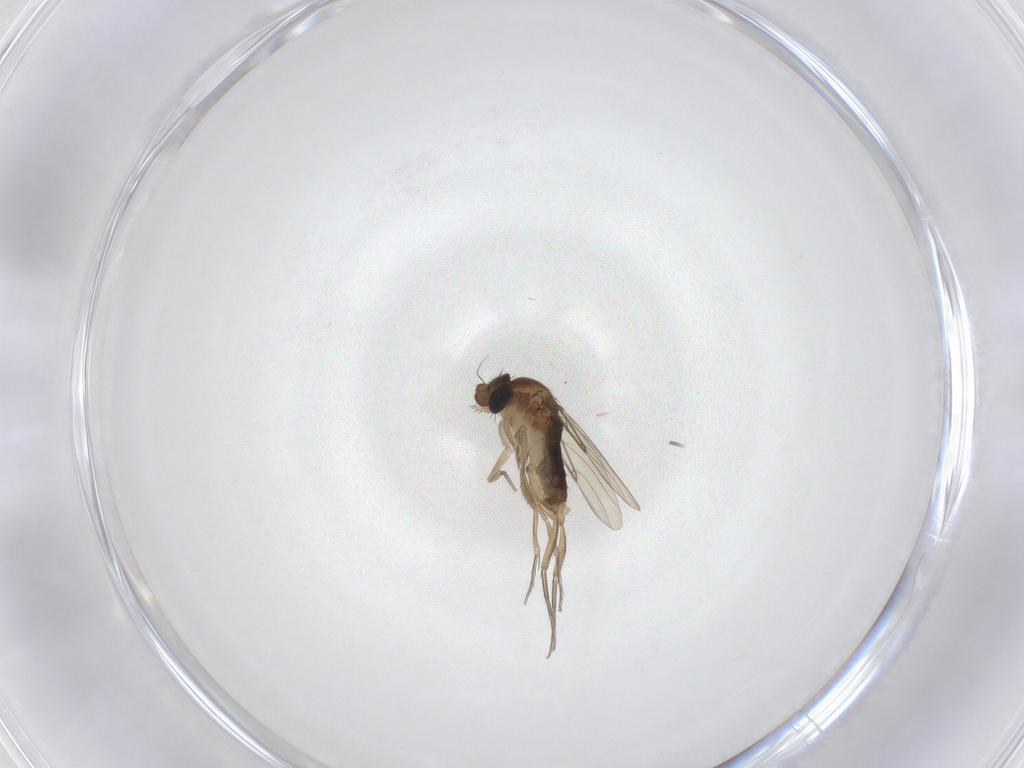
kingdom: Animalia
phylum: Arthropoda
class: Insecta
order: Diptera
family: Phoridae
